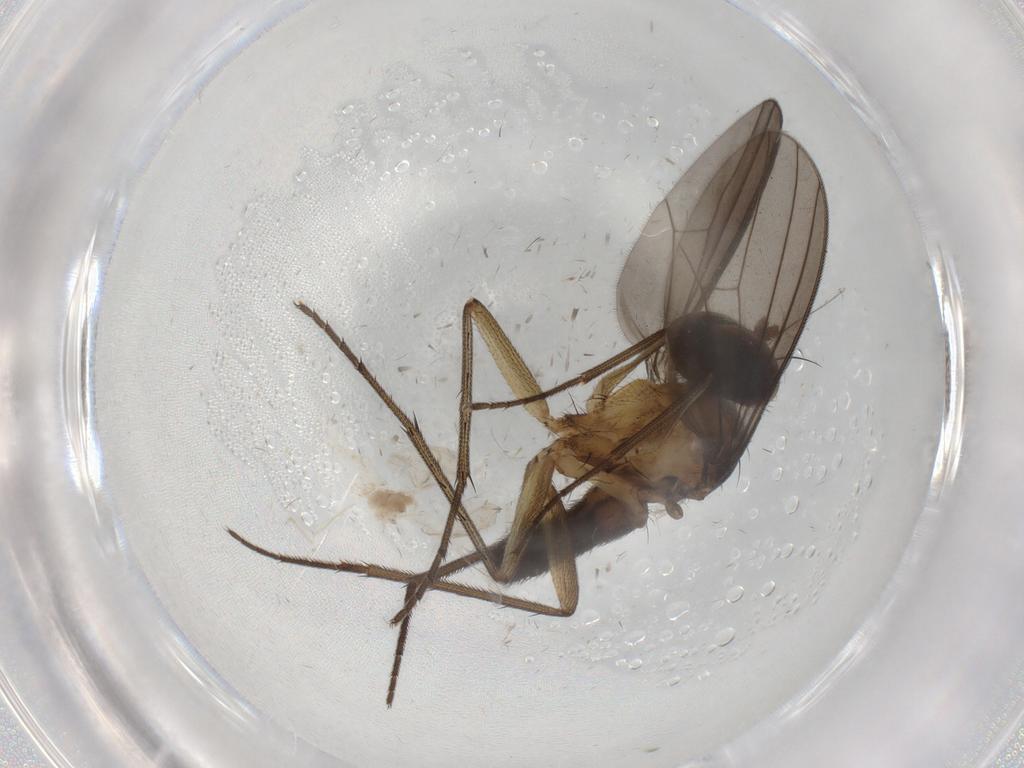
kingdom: Animalia
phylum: Arthropoda
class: Insecta
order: Diptera
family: Dolichopodidae
